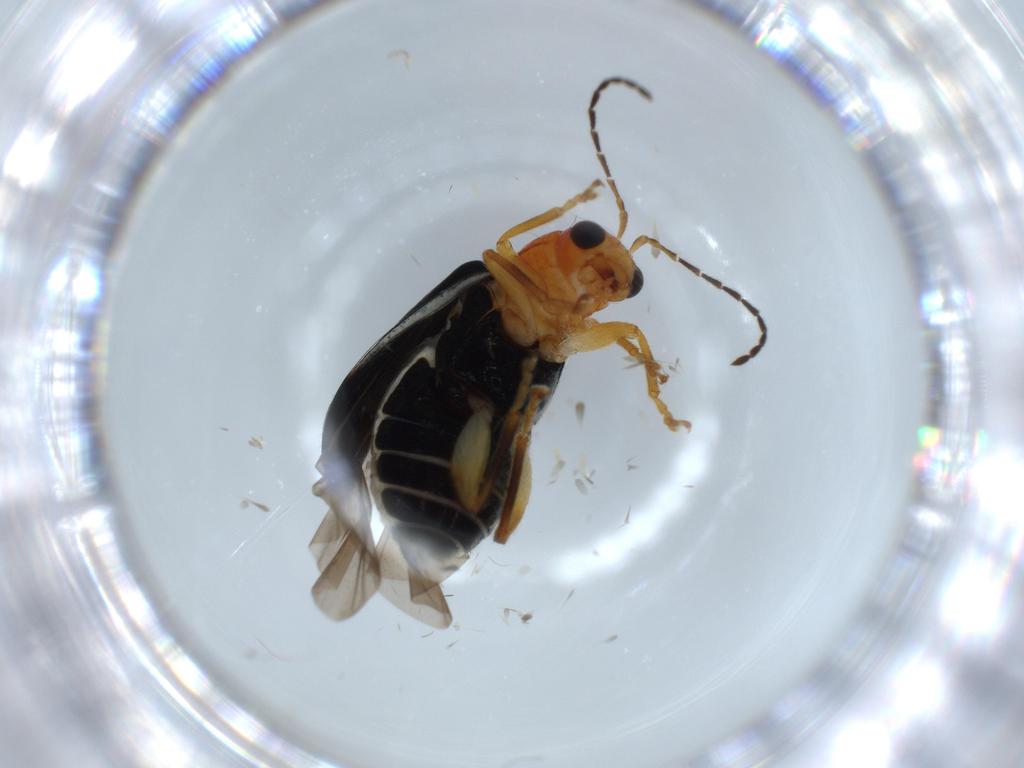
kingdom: Animalia
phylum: Arthropoda
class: Insecta
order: Coleoptera
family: Chrysomelidae
